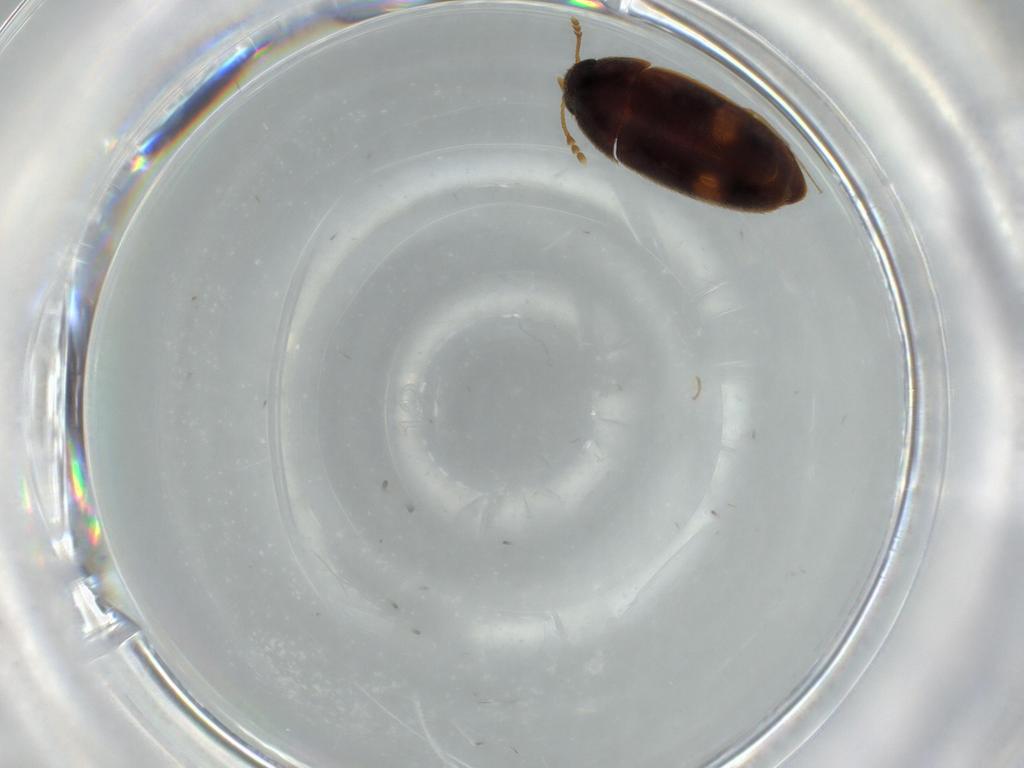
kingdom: Animalia
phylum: Arthropoda
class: Insecta
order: Coleoptera
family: Mycetophagidae
